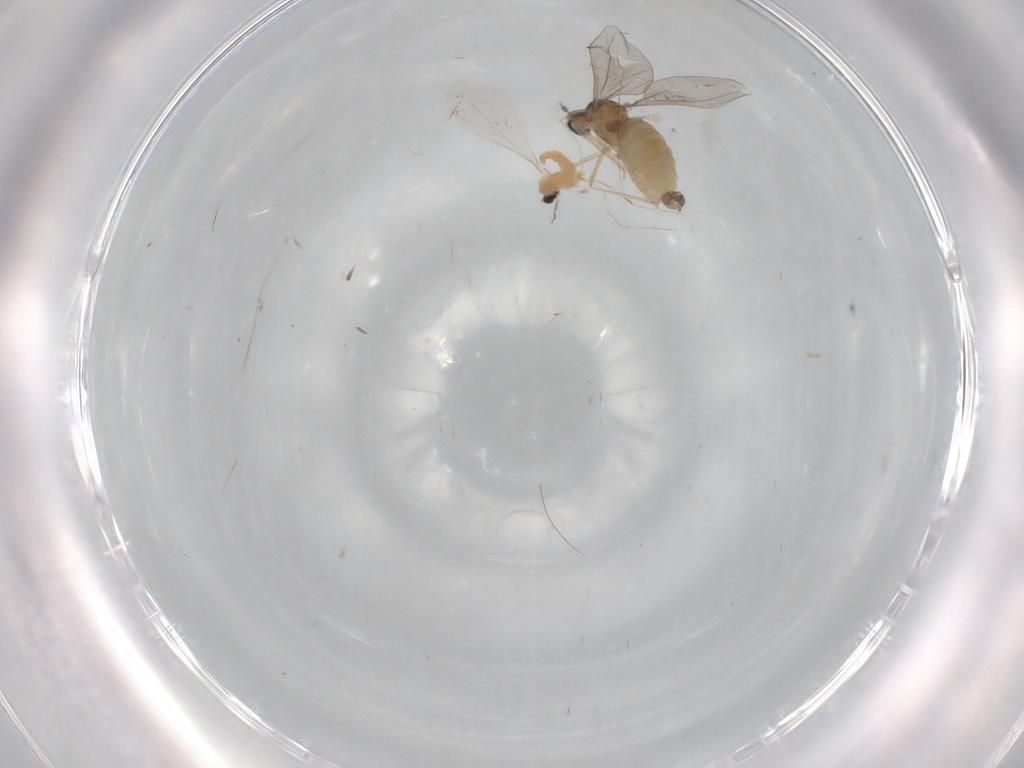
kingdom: Animalia
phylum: Arthropoda
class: Insecta
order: Diptera
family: Cecidomyiidae
